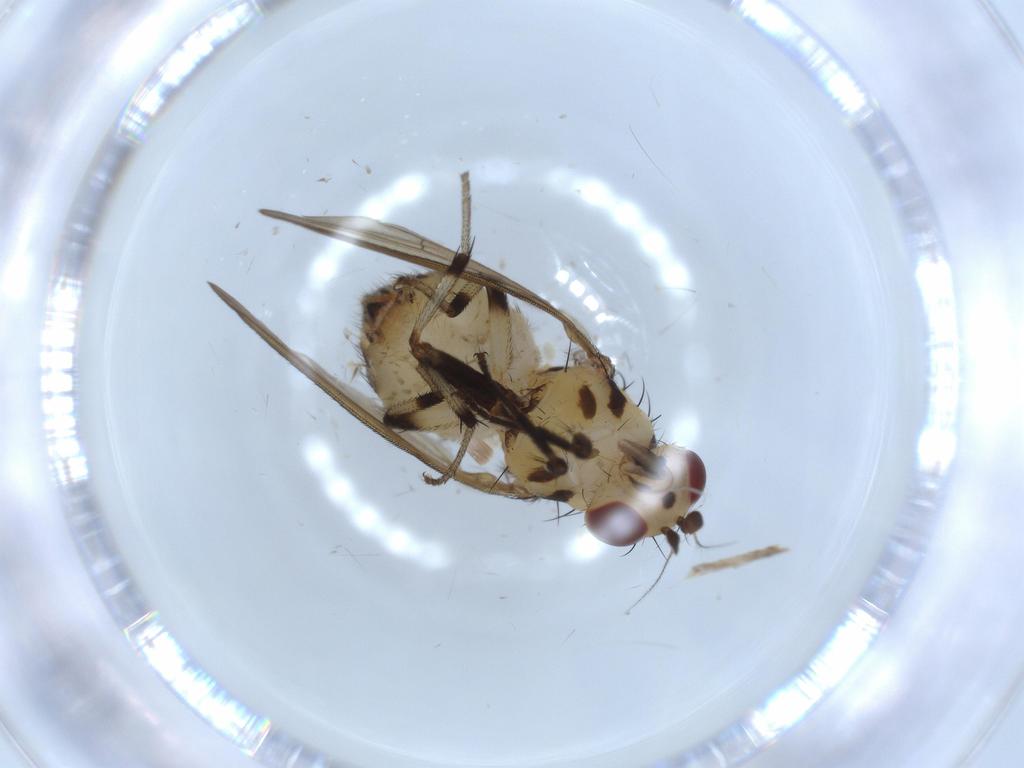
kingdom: Animalia
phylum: Arthropoda
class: Insecta
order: Diptera
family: Lauxaniidae
